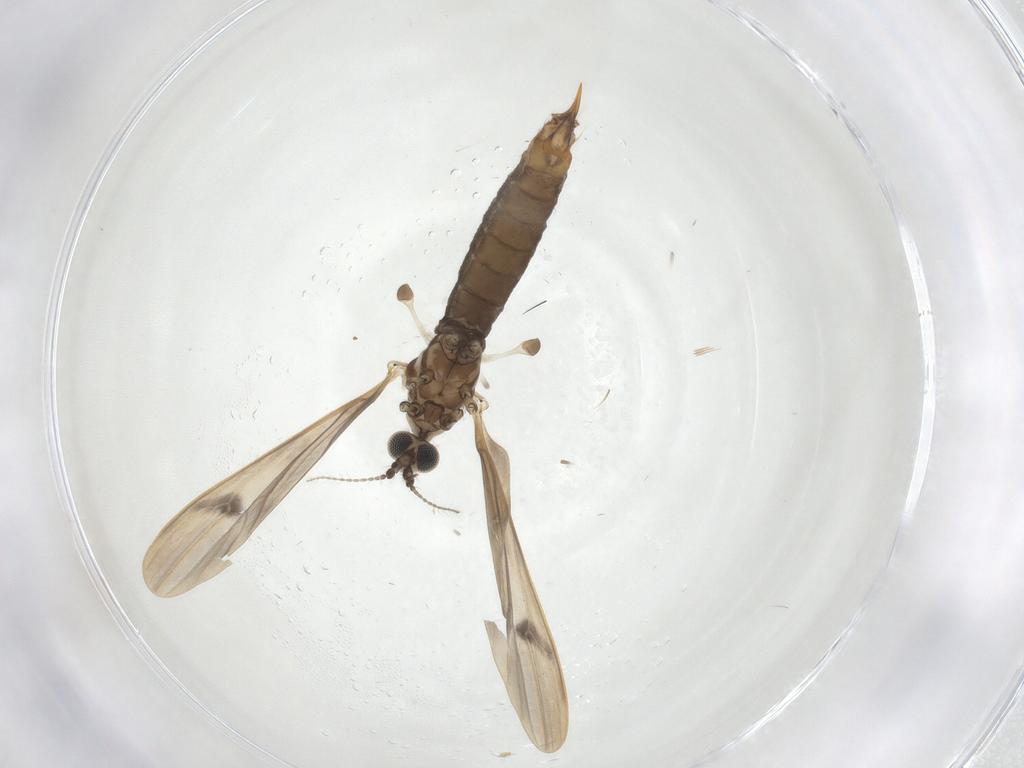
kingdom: Animalia
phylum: Arthropoda
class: Insecta
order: Diptera
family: Limoniidae
